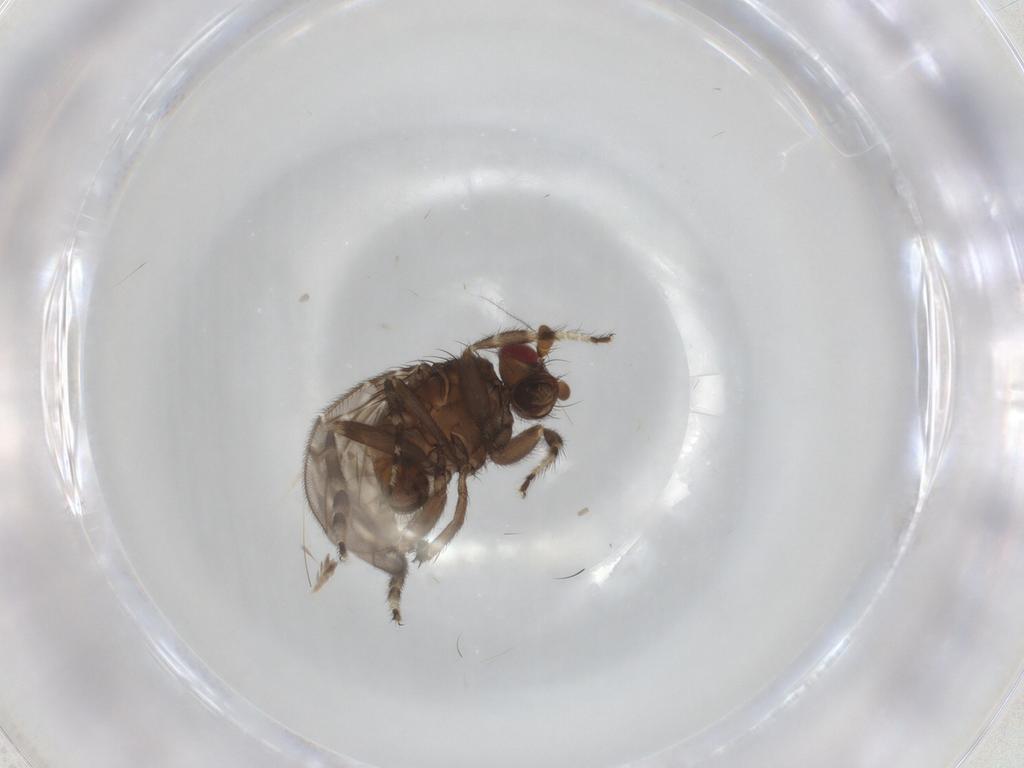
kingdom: Animalia
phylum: Arthropoda
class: Insecta
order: Diptera
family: Sphaeroceridae
